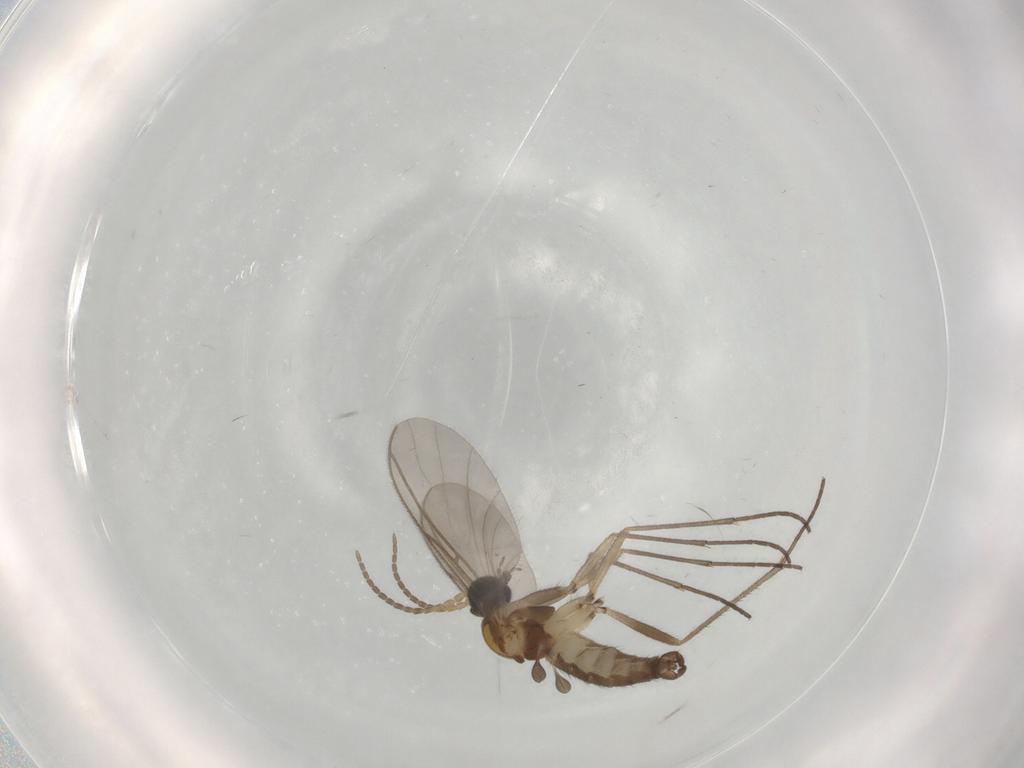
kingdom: Animalia
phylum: Arthropoda
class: Insecta
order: Diptera
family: Sciaridae
